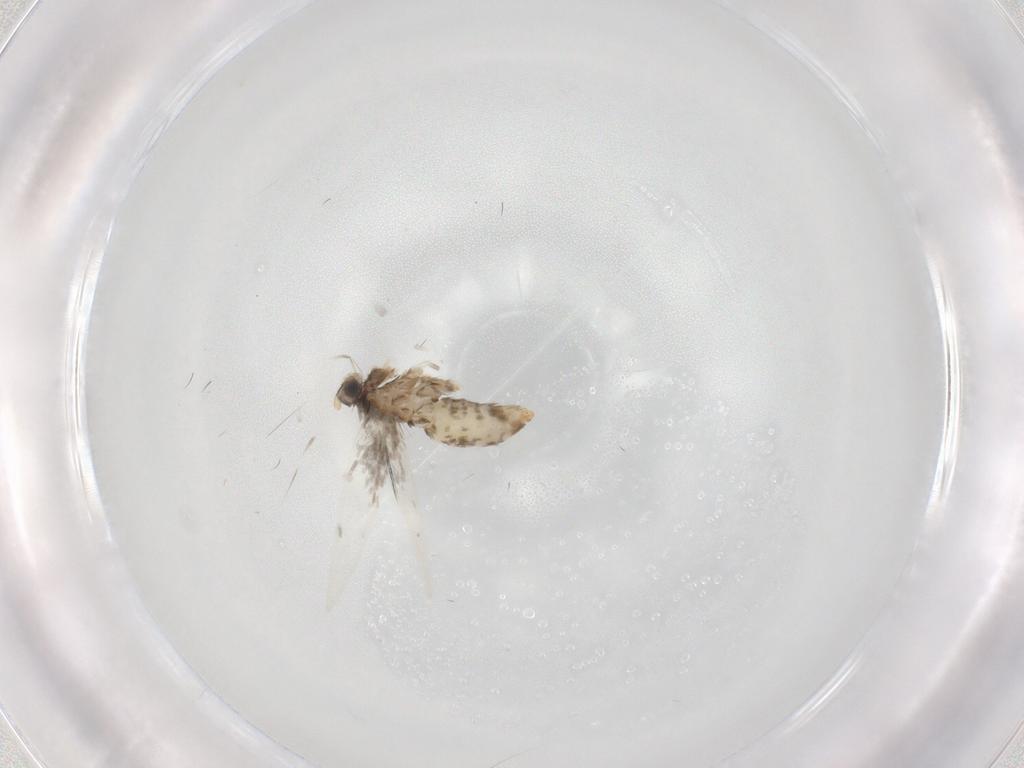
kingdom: Animalia
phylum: Arthropoda
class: Insecta
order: Lepidoptera
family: Nepticulidae
